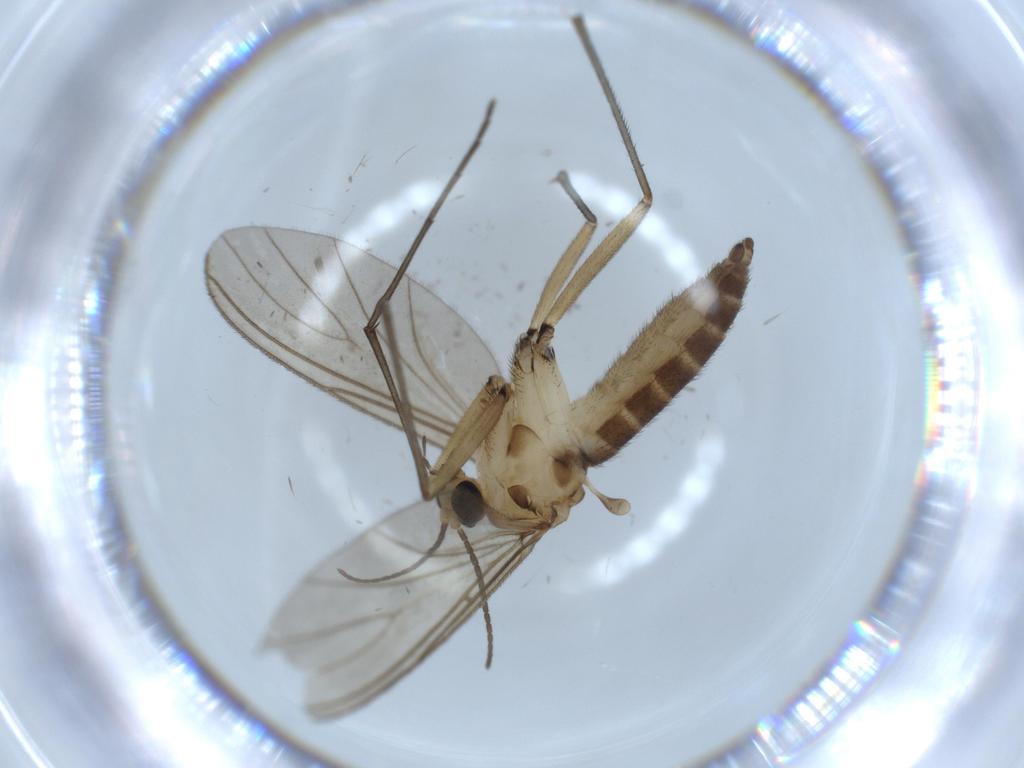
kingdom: Animalia
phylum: Arthropoda
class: Insecta
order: Diptera
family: Sciaridae
